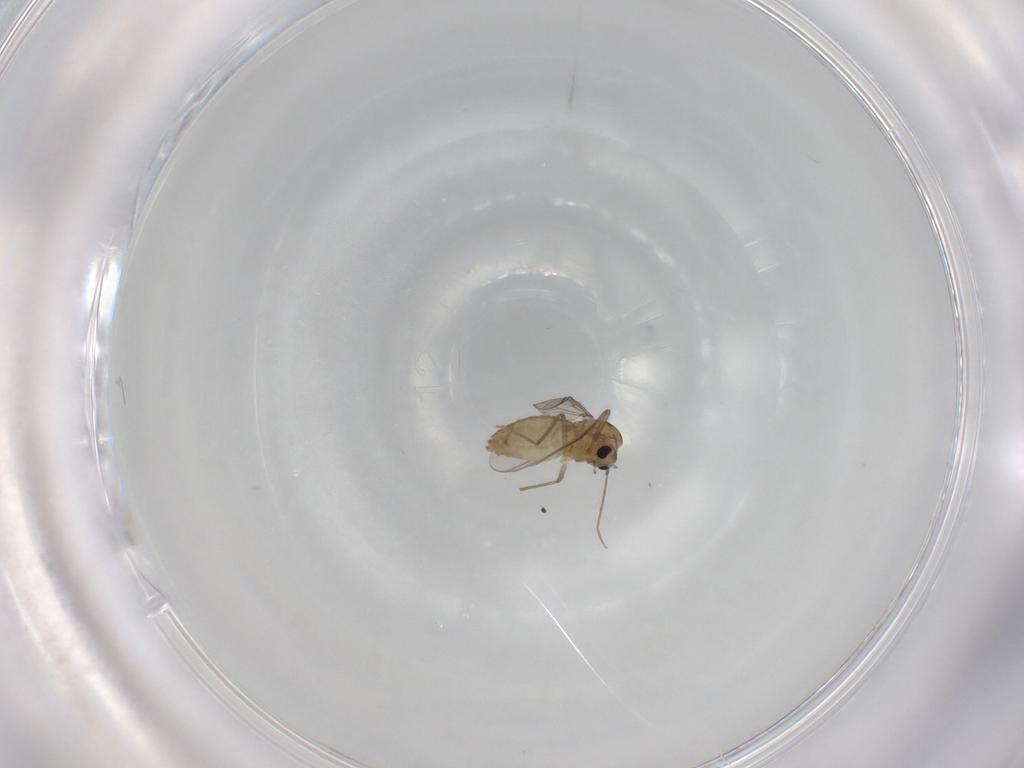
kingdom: Animalia
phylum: Arthropoda
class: Insecta
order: Diptera
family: Chironomidae
